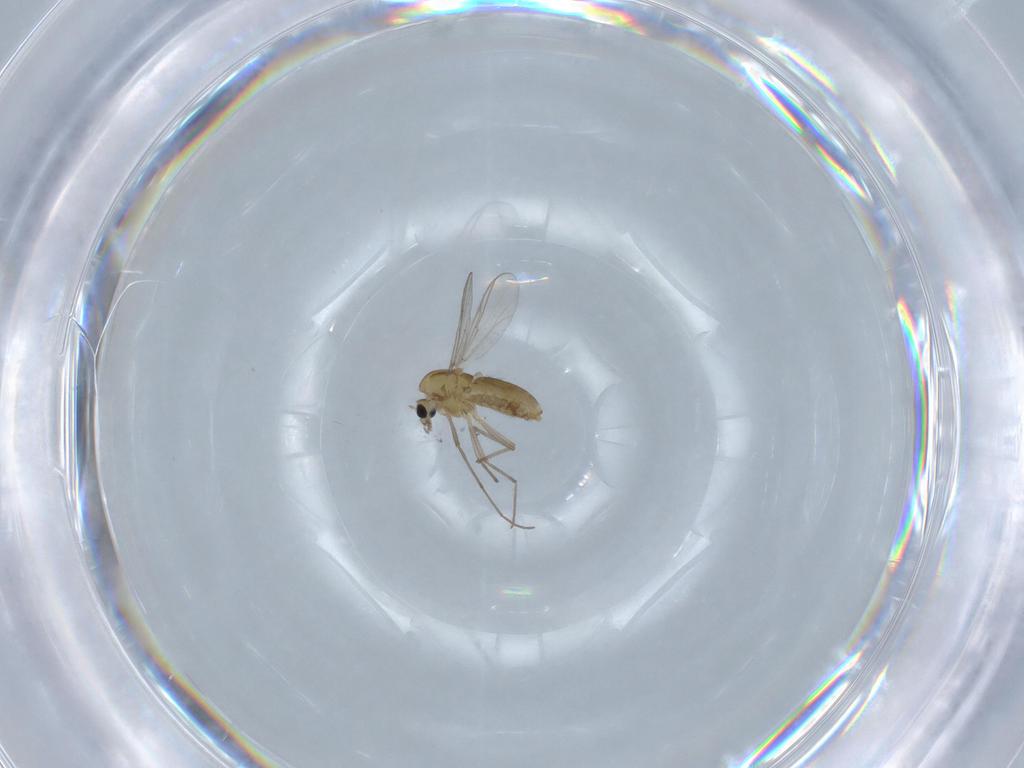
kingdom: Animalia
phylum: Arthropoda
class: Insecta
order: Diptera
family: Chironomidae
